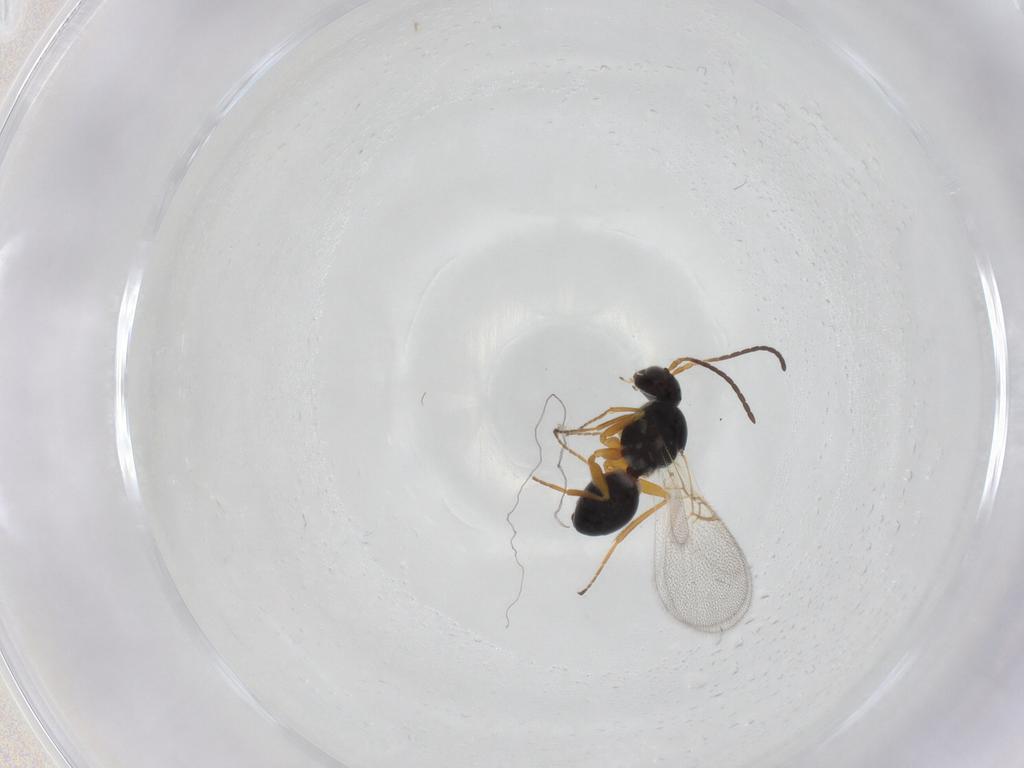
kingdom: Animalia
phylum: Arthropoda
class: Insecta
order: Hymenoptera
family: Figitidae
